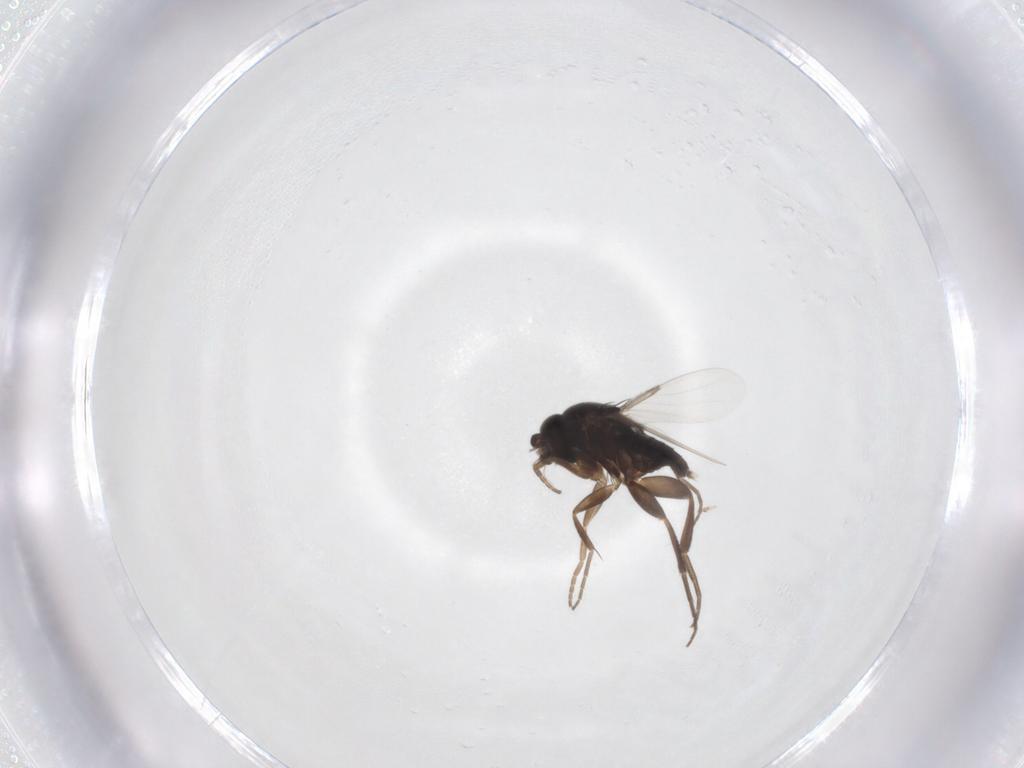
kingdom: Animalia
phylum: Arthropoda
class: Insecta
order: Diptera
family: Phoridae
